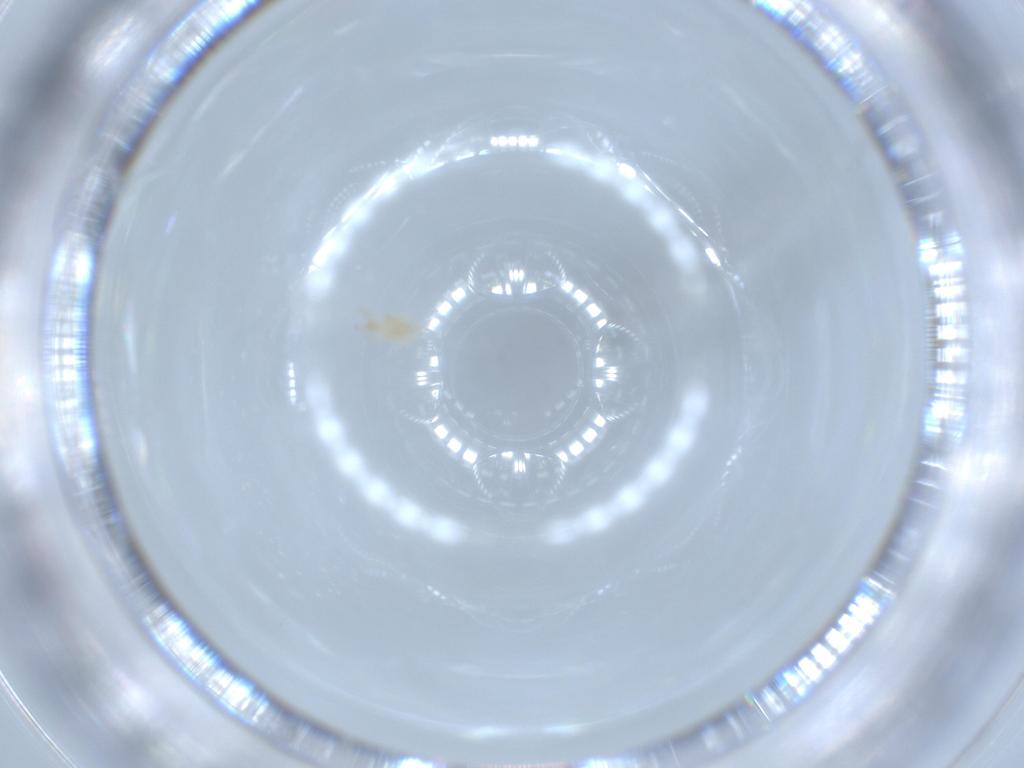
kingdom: Animalia
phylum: Arthropoda
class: Arachnida
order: Trombidiformes
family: Cunaxidae
